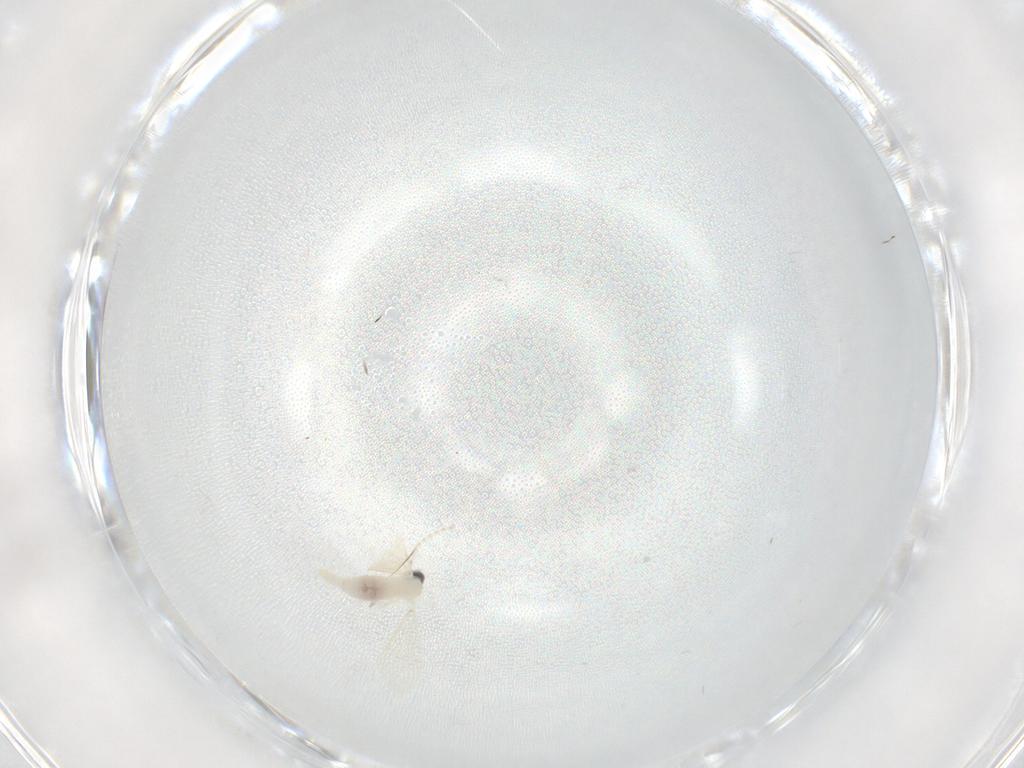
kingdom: Animalia
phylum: Arthropoda
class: Insecta
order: Diptera
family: Cecidomyiidae
